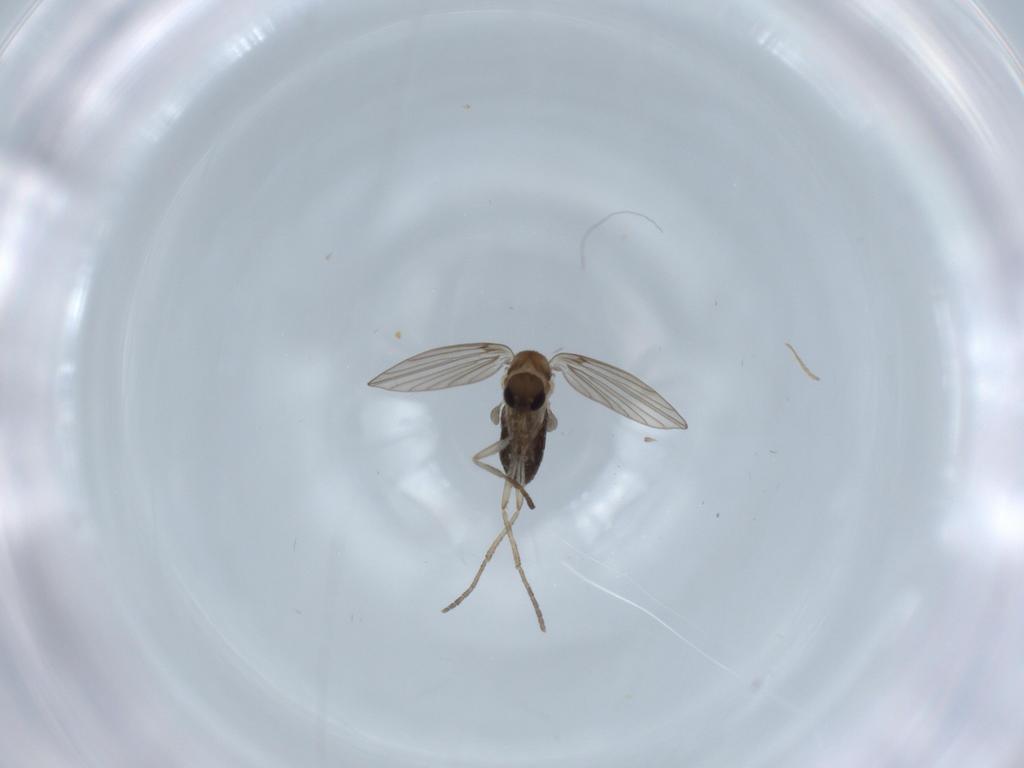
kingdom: Animalia
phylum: Arthropoda
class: Insecta
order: Diptera
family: Psychodidae
